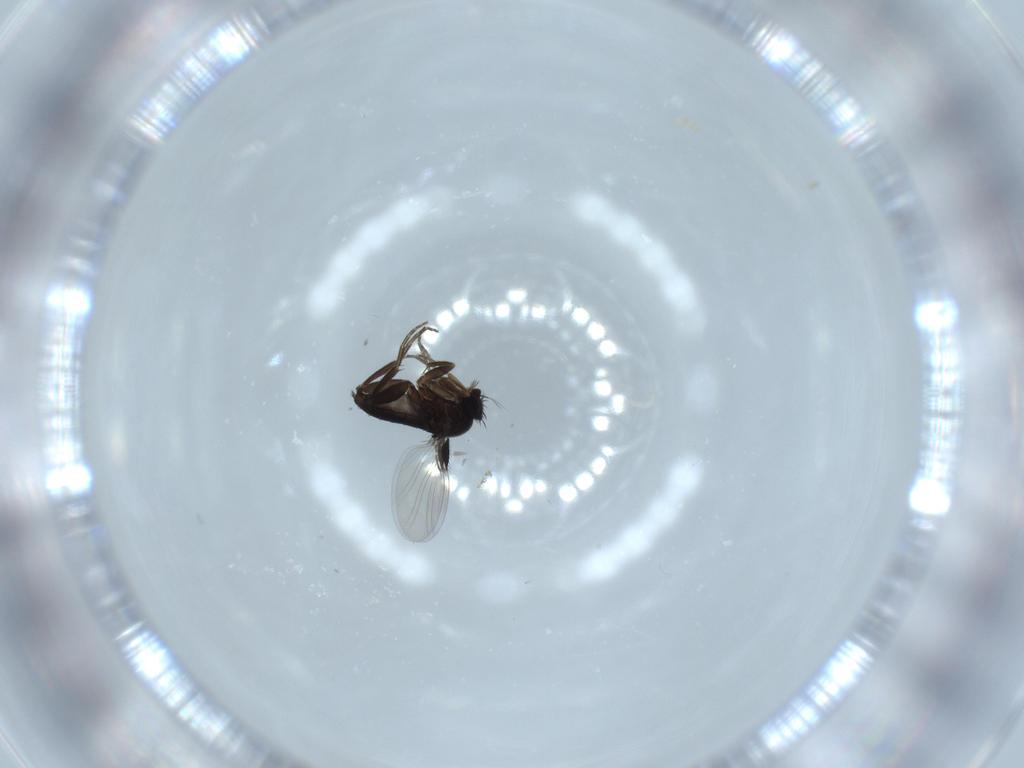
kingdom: Animalia
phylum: Arthropoda
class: Insecta
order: Diptera
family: Phoridae
